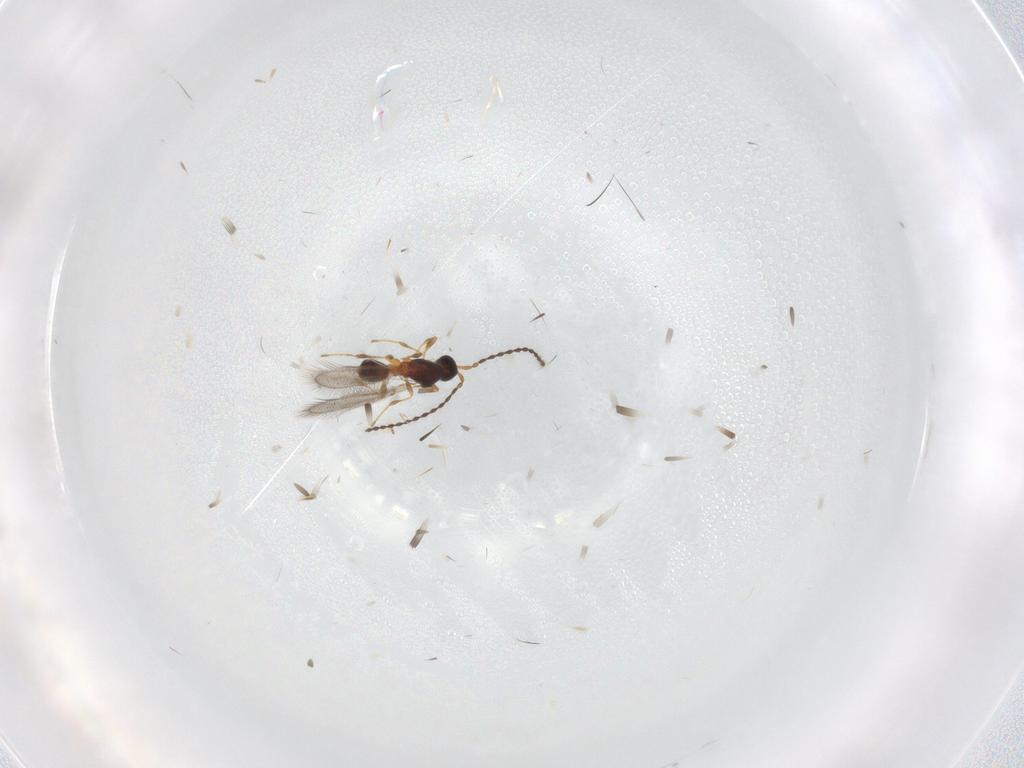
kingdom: Animalia
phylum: Arthropoda
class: Insecta
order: Hymenoptera
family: Diapriidae
